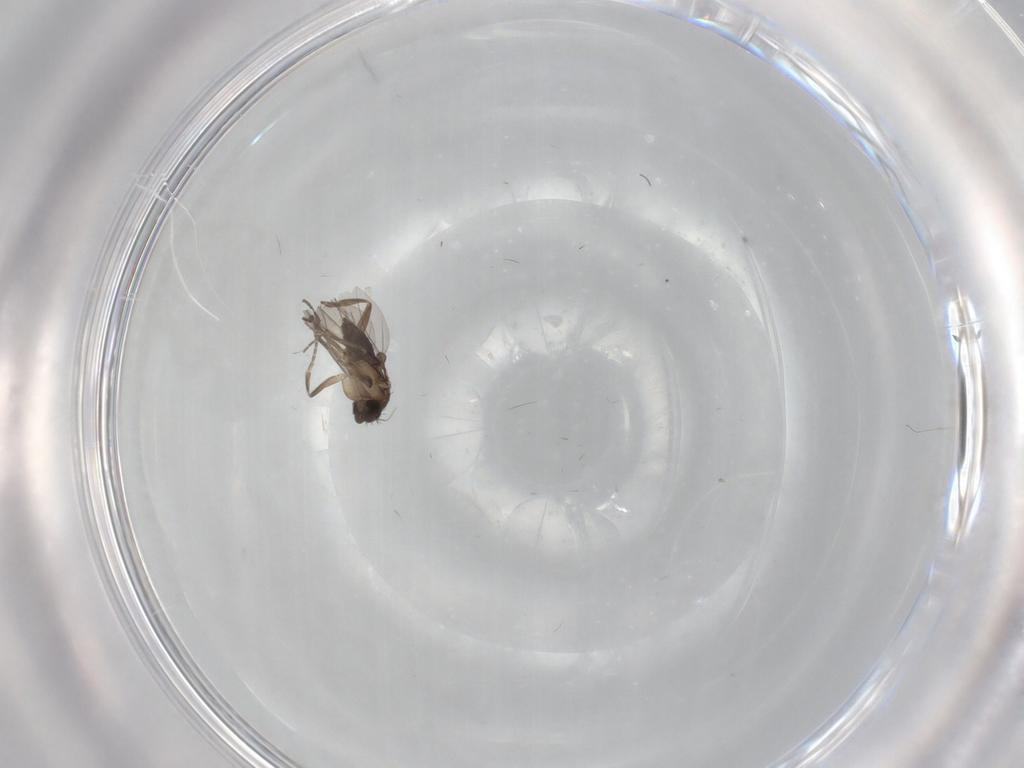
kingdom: Animalia
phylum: Arthropoda
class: Insecta
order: Diptera
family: Phoridae
